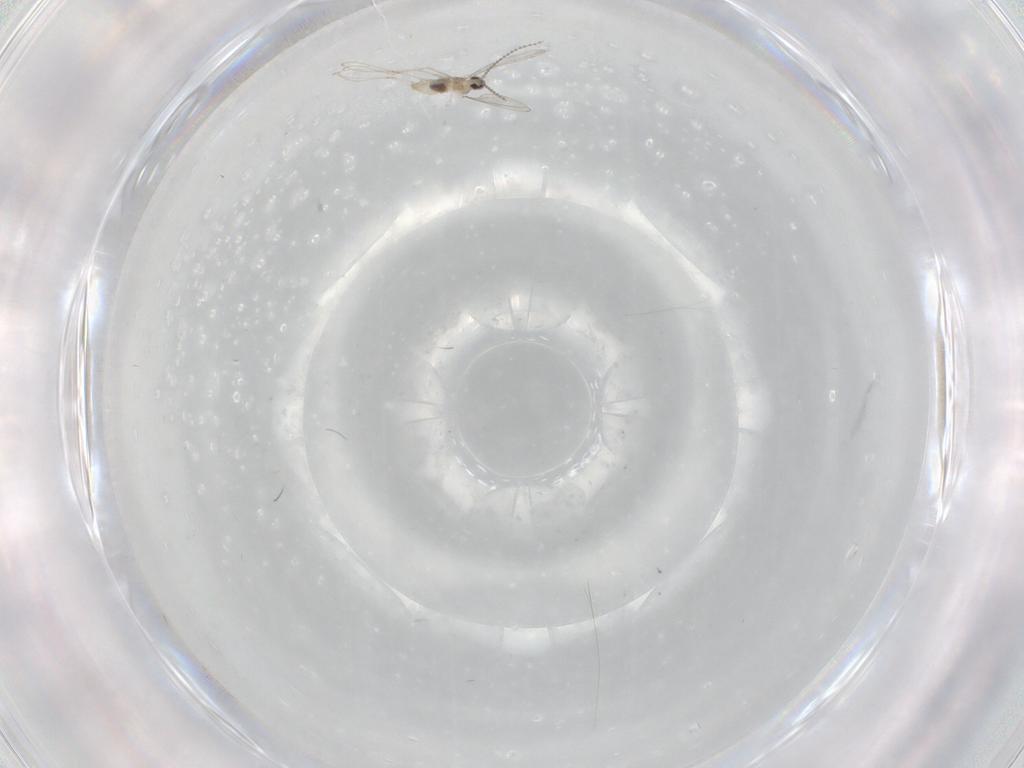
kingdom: Animalia
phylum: Arthropoda
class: Insecta
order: Diptera
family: Cecidomyiidae
